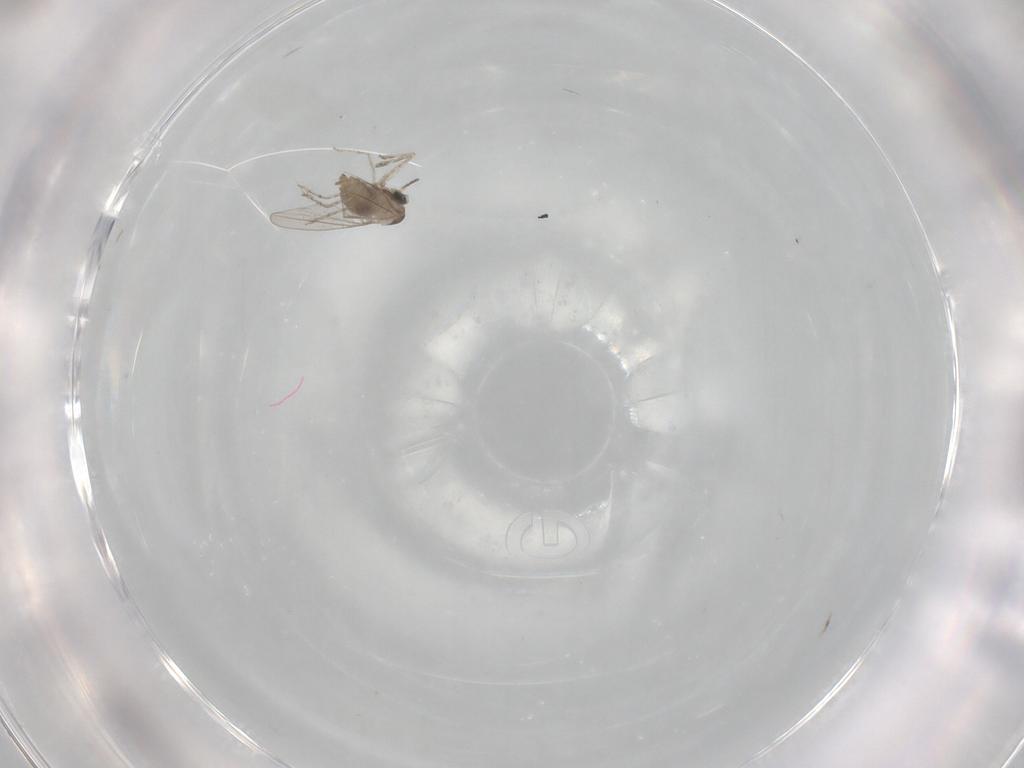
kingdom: Animalia
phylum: Arthropoda
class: Insecta
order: Diptera
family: Cecidomyiidae
